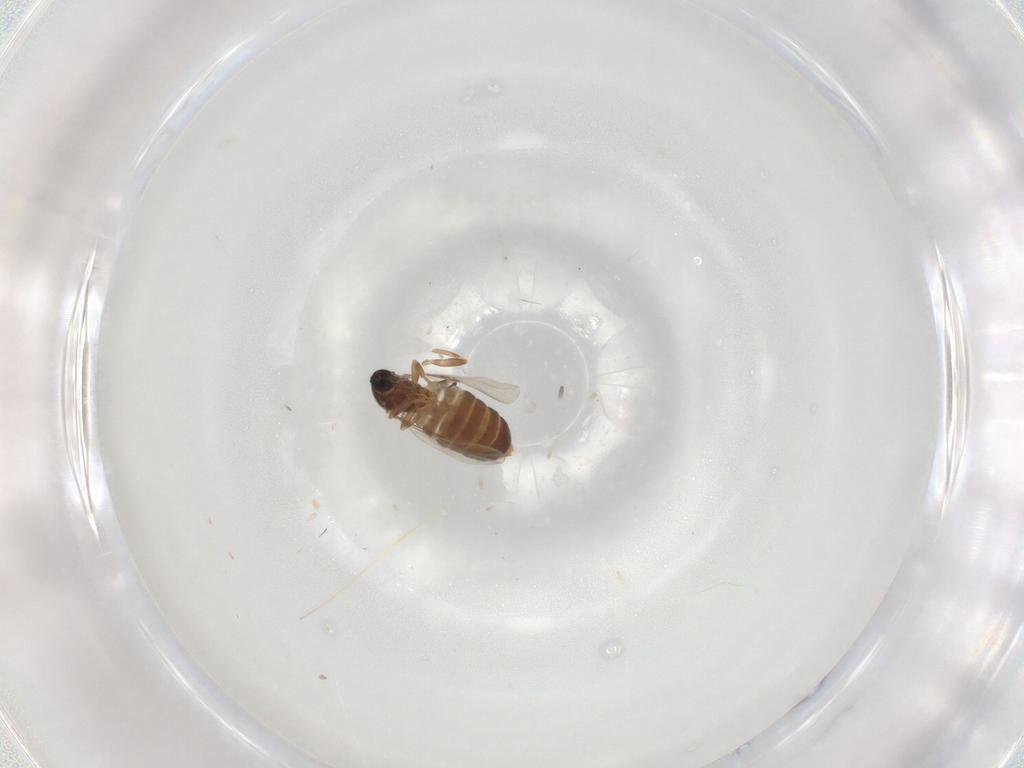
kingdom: Animalia
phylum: Arthropoda
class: Insecta
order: Diptera
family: Scatopsidae
